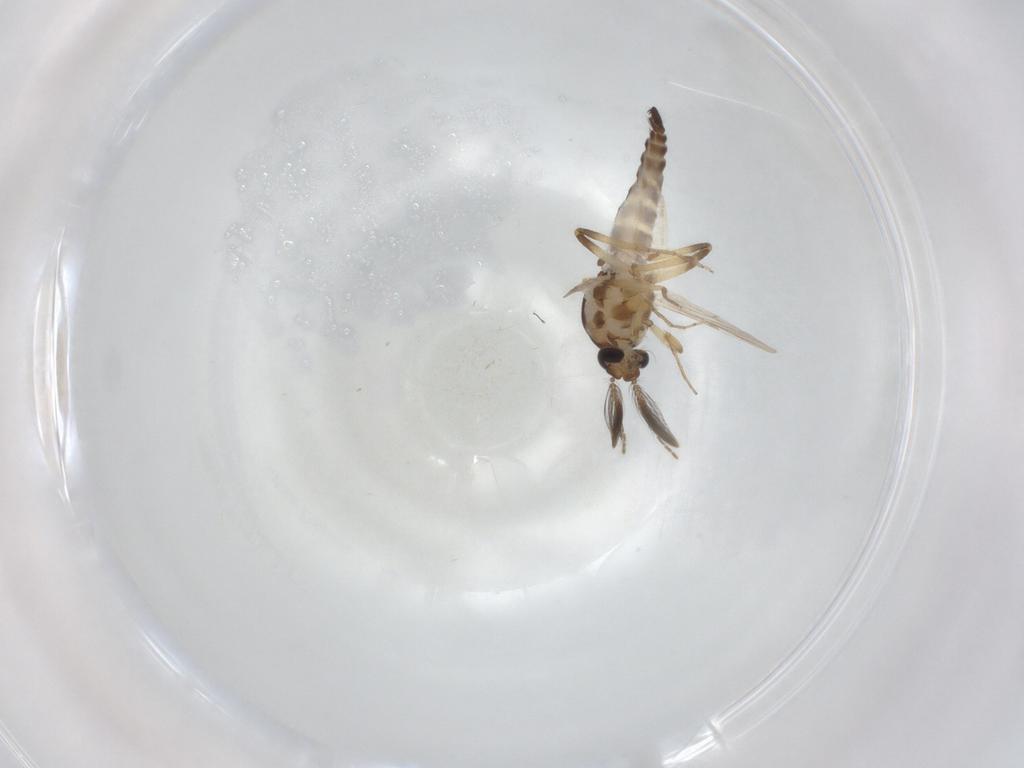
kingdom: Animalia
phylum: Arthropoda
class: Insecta
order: Diptera
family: Ceratopogonidae
